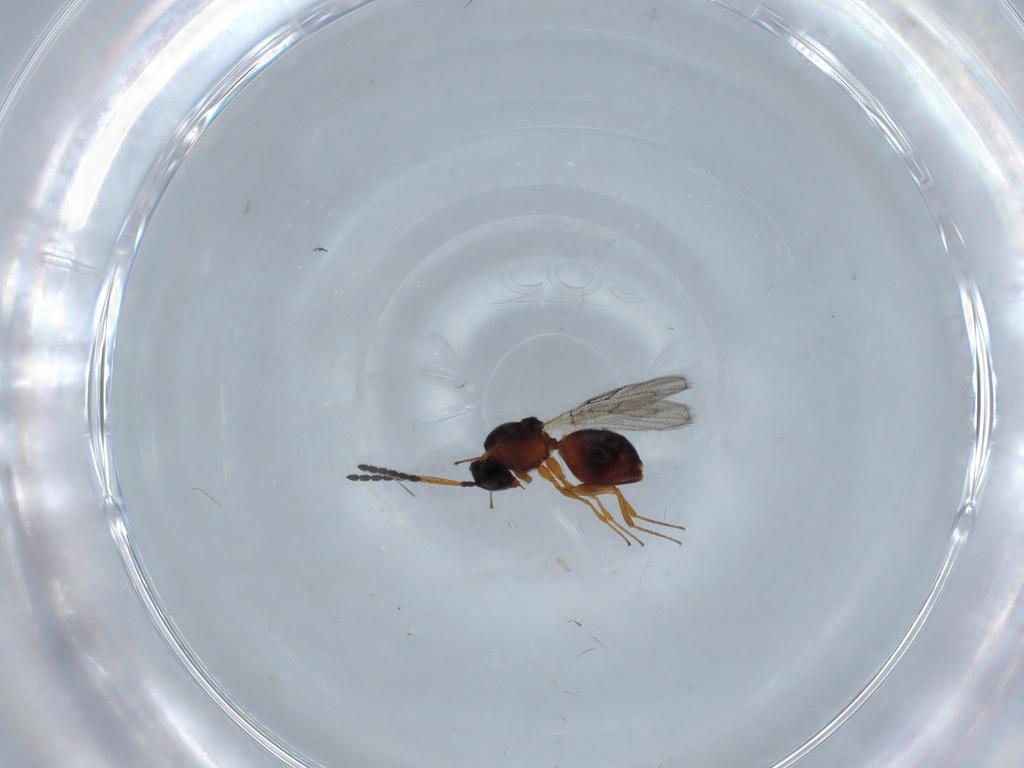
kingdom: Animalia
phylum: Arthropoda
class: Insecta
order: Hymenoptera
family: Figitidae
